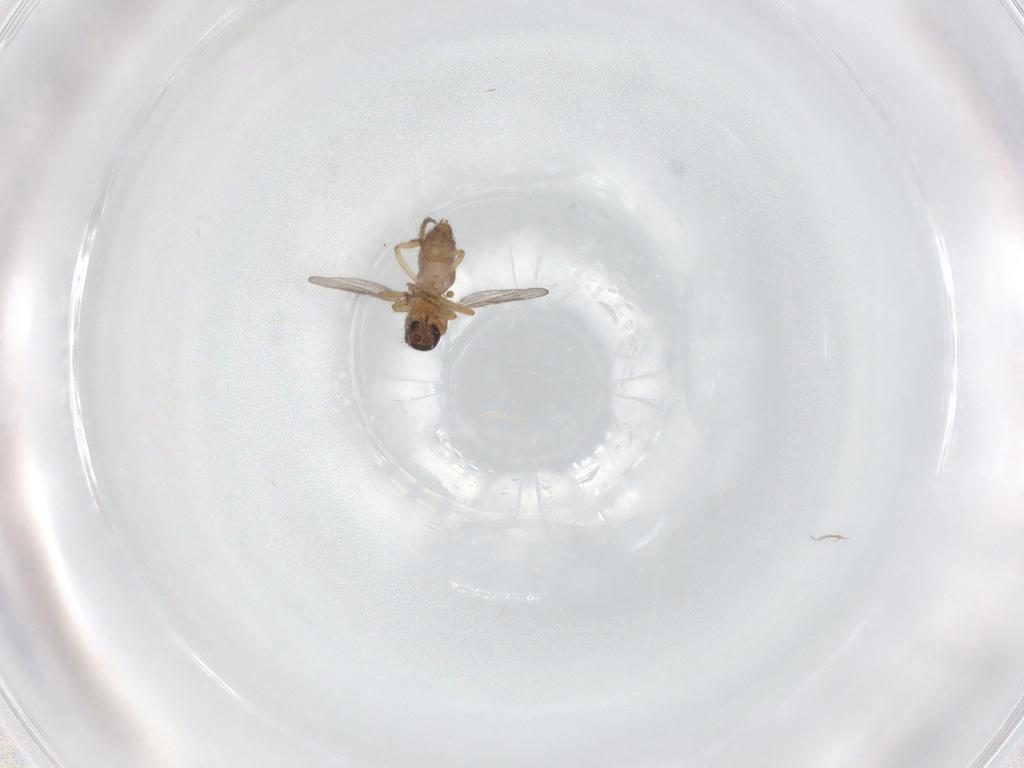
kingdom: Animalia
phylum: Arthropoda
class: Insecta
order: Diptera
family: Ceratopogonidae
